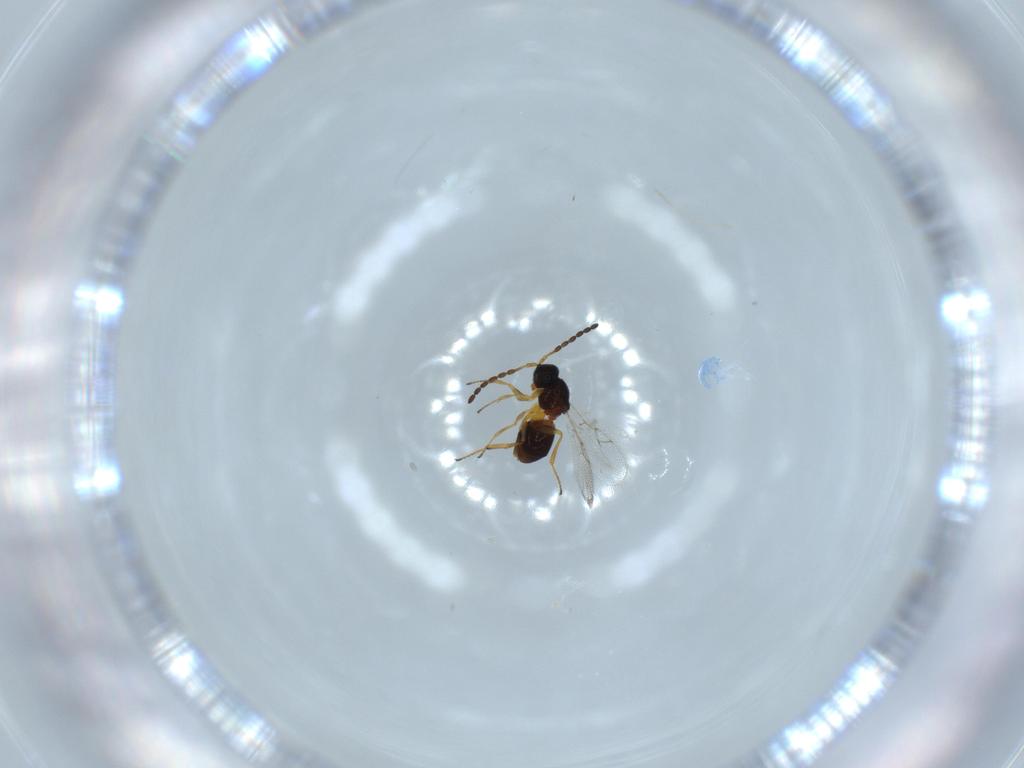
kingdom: Animalia
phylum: Arthropoda
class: Insecta
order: Hymenoptera
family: Figitidae
